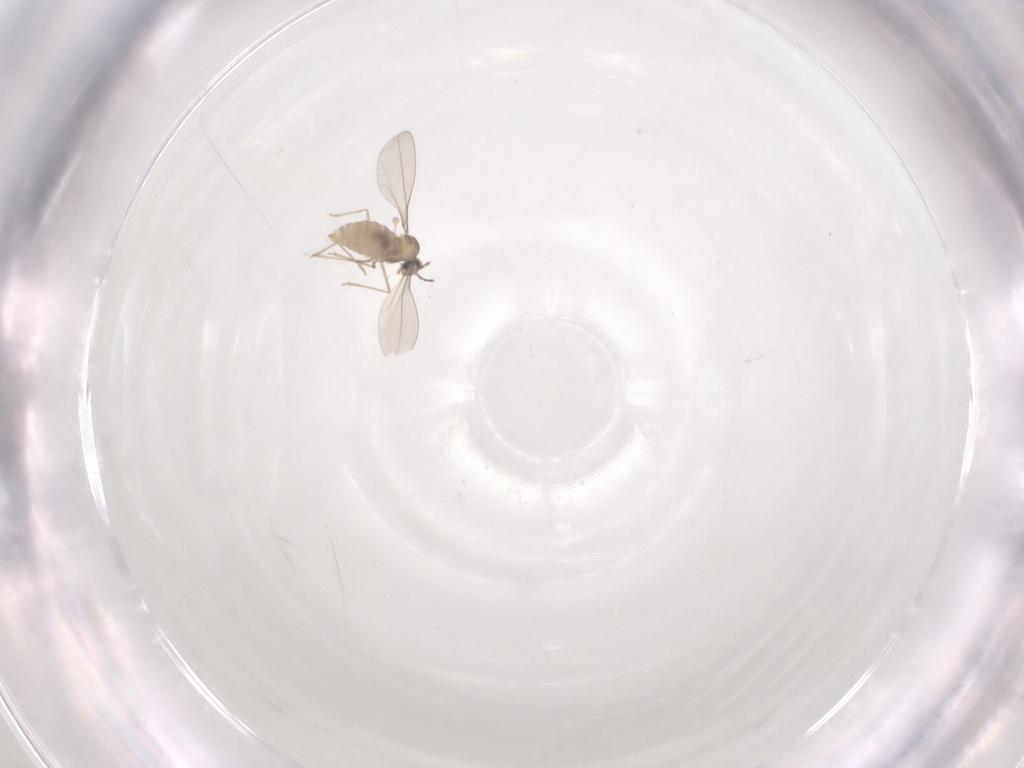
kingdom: Animalia
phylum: Arthropoda
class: Insecta
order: Diptera
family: Cecidomyiidae
